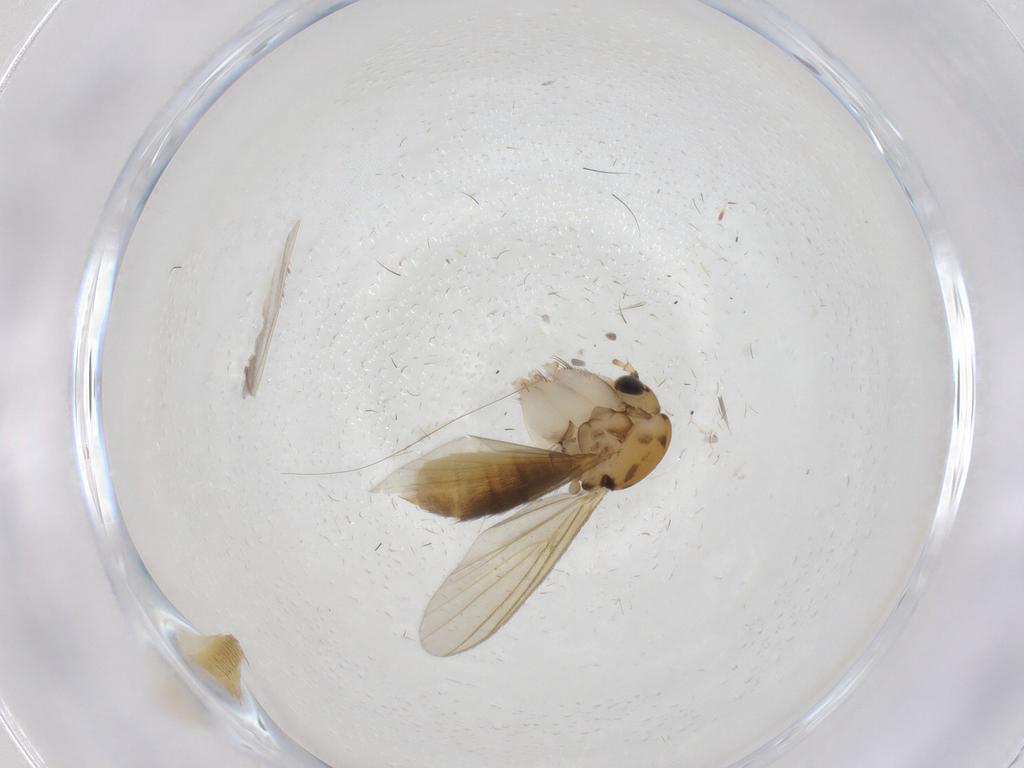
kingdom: Animalia
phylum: Arthropoda
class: Insecta
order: Diptera
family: Mycetophilidae
